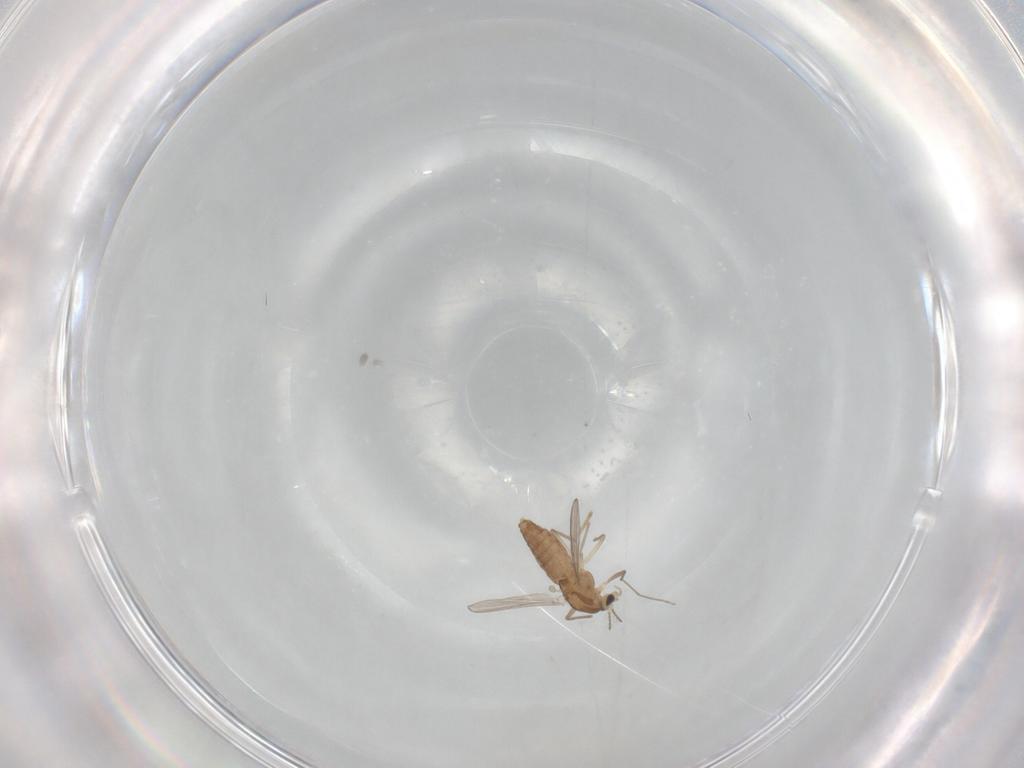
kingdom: Animalia
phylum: Arthropoda
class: Insecta
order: Diptera
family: Chironomidae
